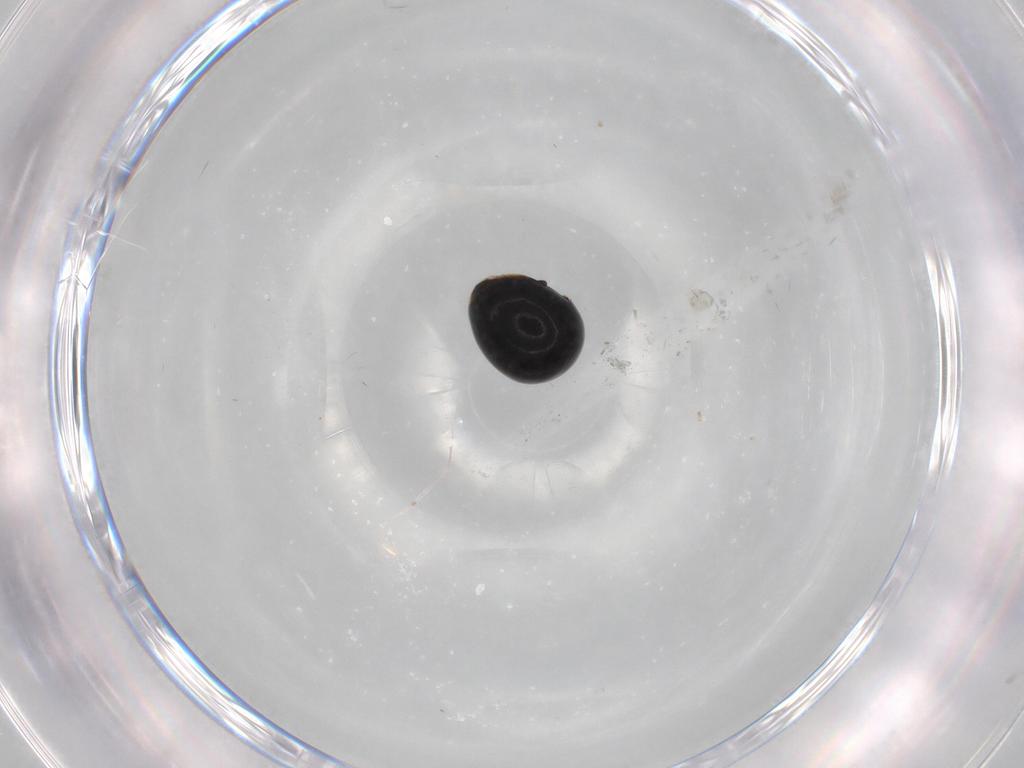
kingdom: Animalia
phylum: Arthropoda
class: Insecta
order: Coleoptera
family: Cybocephalidae
